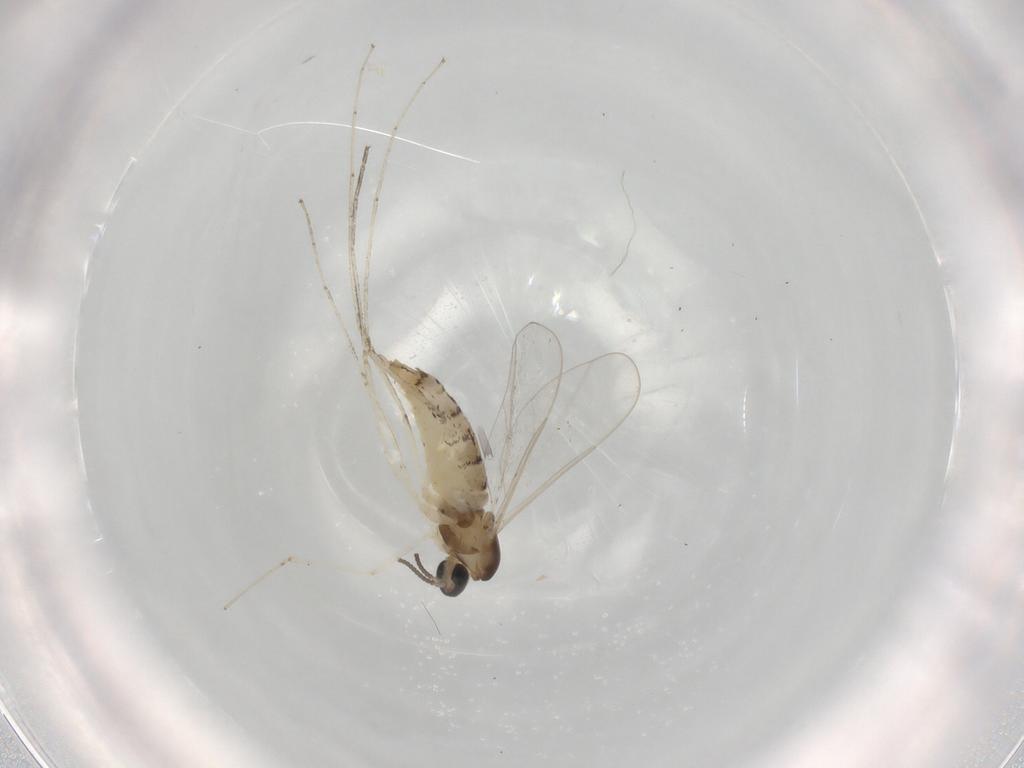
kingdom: Animalia
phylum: Arthropoda
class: Insecta
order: Diptera
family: Cecidomyiidae
